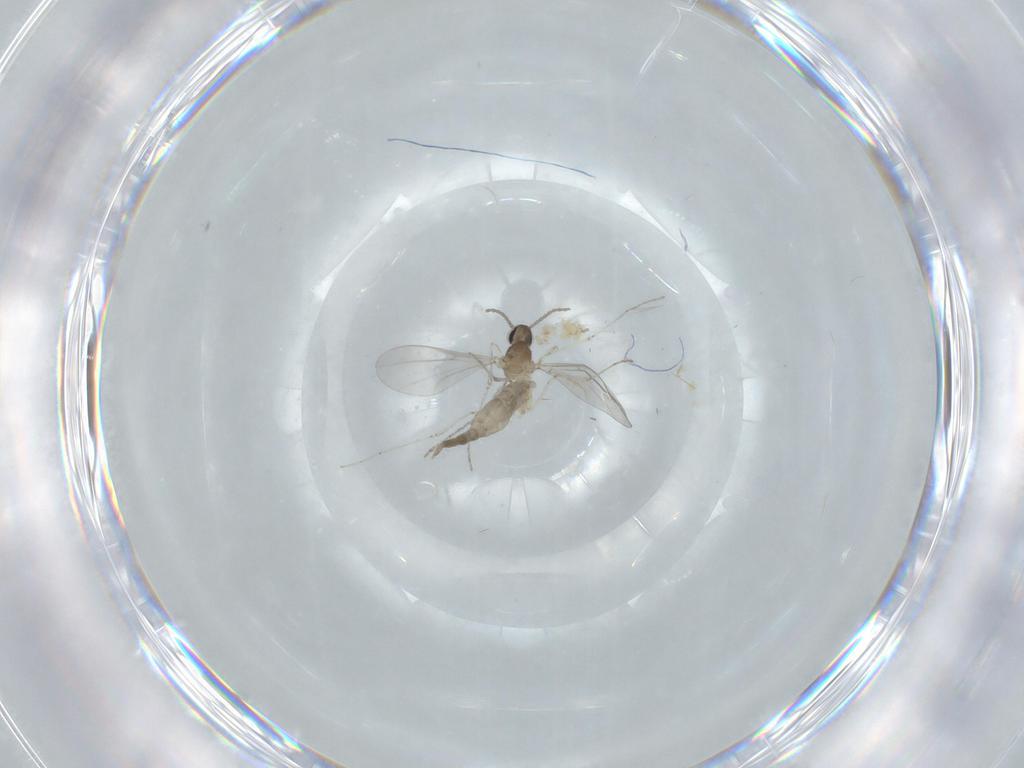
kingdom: Animalia
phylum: Arthropoda
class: Insecta
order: Diptera
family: Cecidomyiidae
